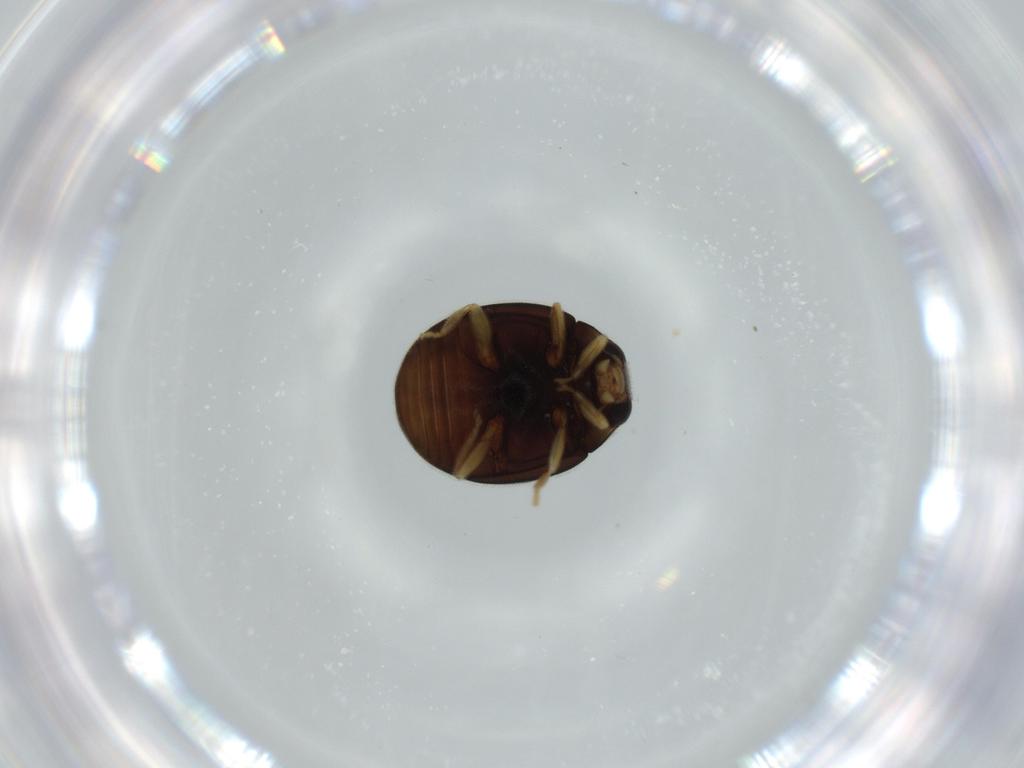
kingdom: Animalia
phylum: Arthropoda
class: Insecta
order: Coleoptera
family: Coccinellidae
